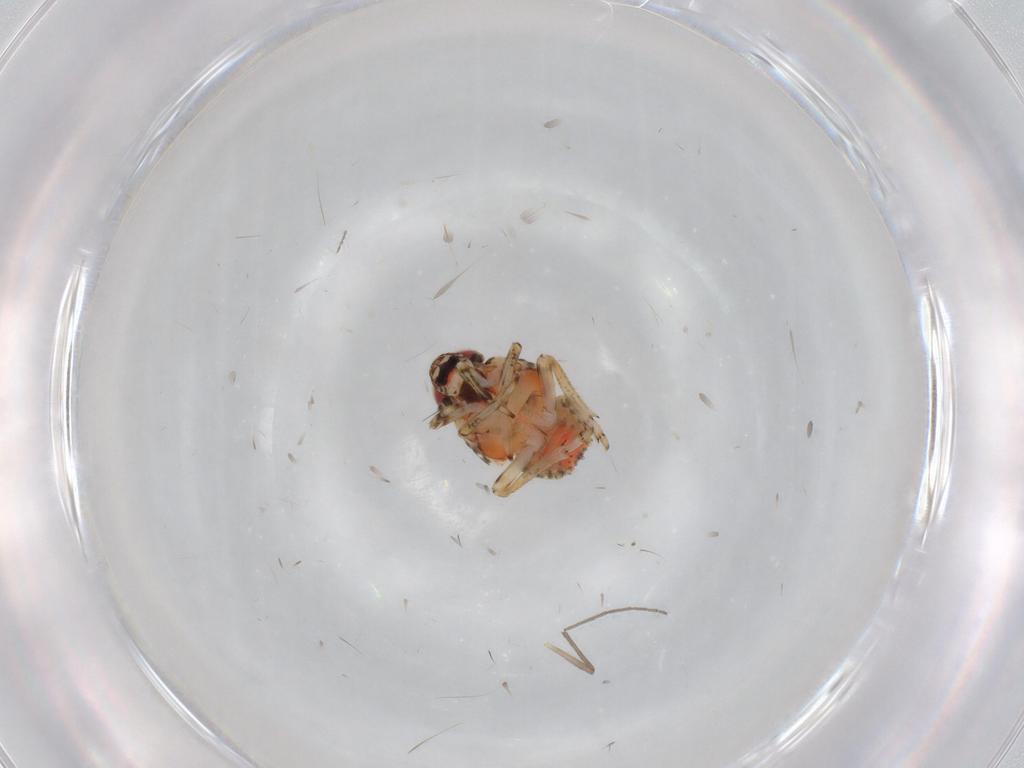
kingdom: Animalia
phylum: Arthropoda
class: Insecta
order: Hemiptera
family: Issidae
